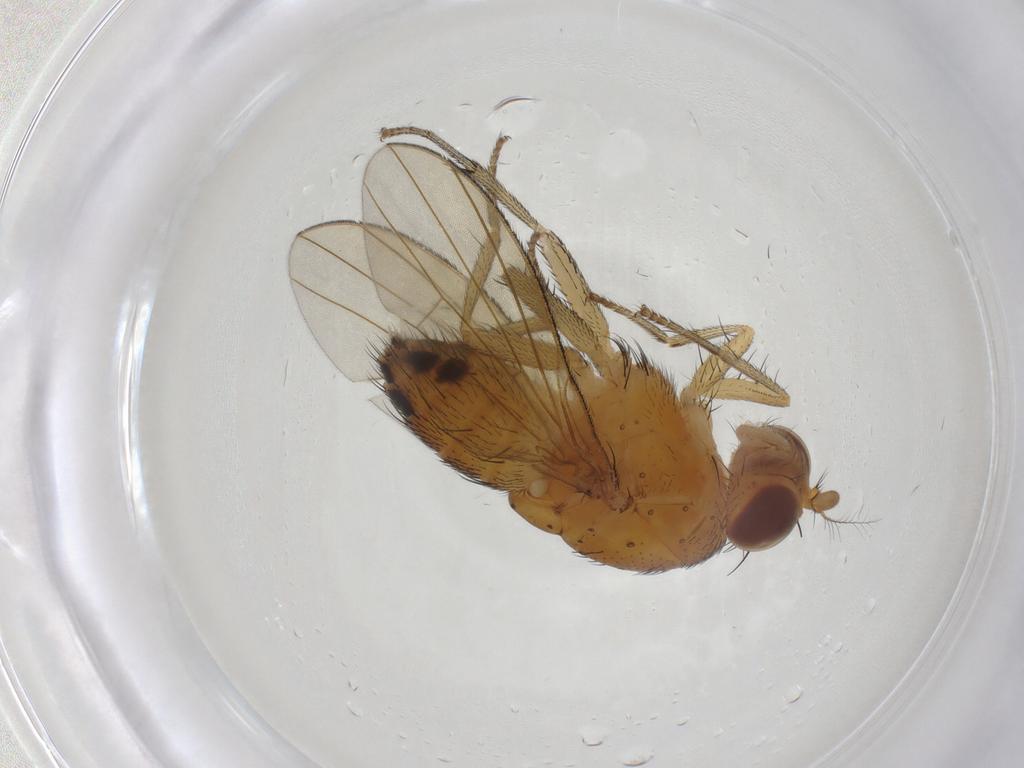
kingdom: Animalia
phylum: Arthropoda
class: Insecta
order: Diptera
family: Lauxaniidae
